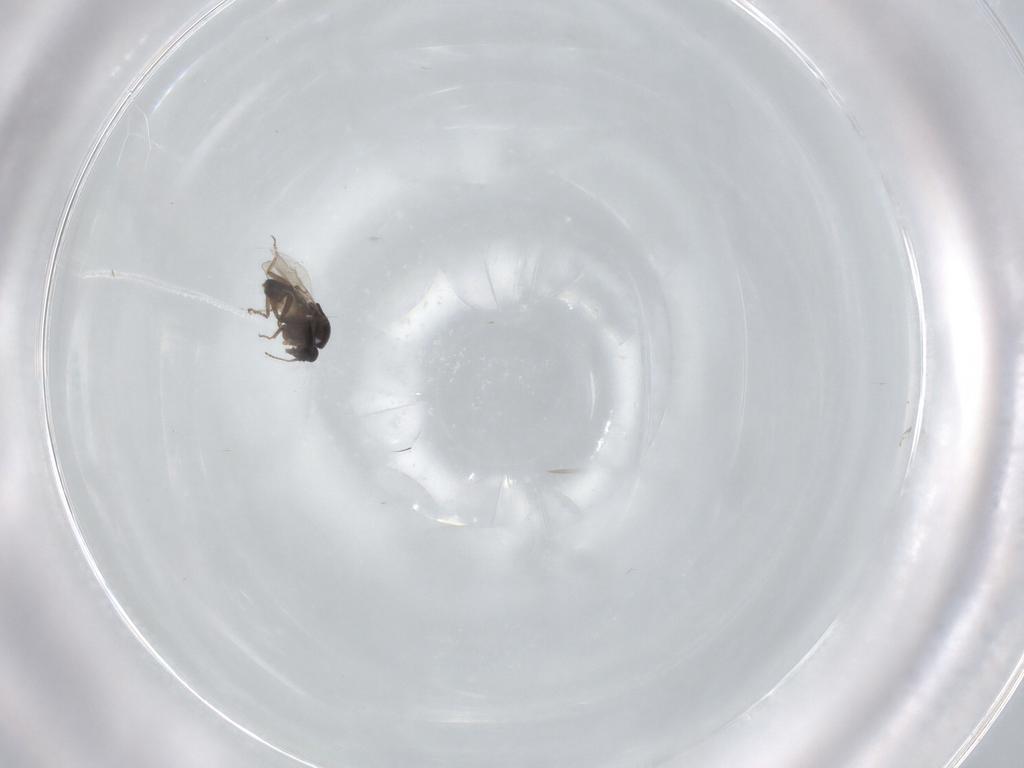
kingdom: Animalia
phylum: Arthropoda
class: Insecta
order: Diptera
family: Ceratopogonidae
